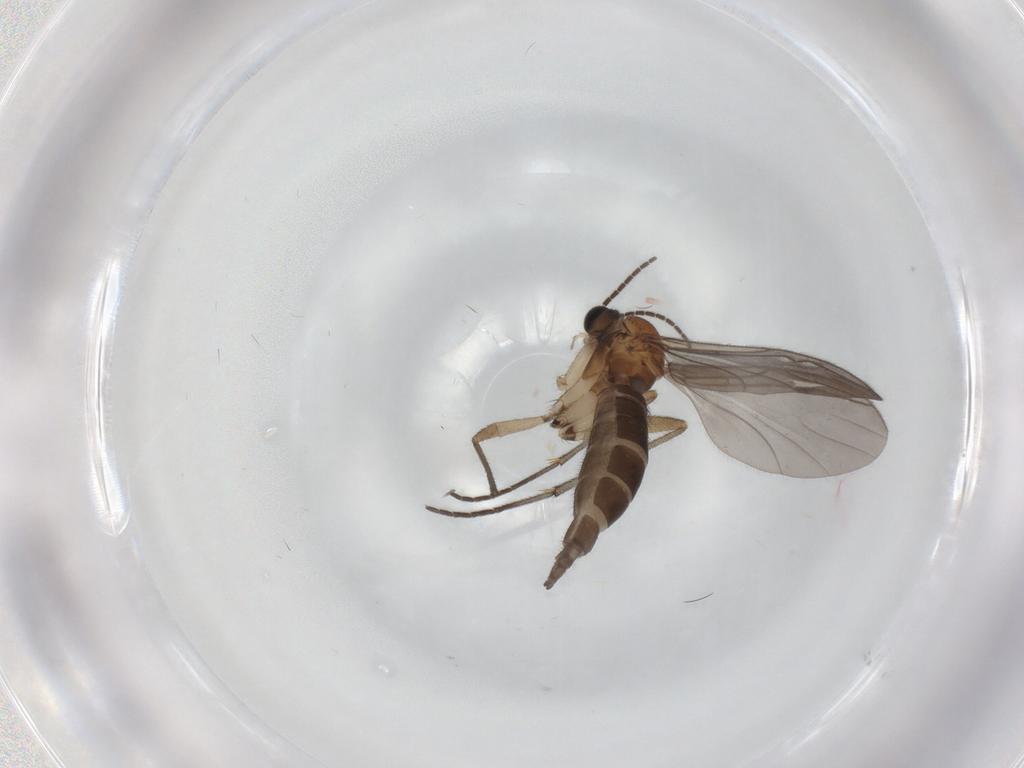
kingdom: Animalia
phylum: Arthropoda
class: Insecta
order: Diptera
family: Sciaridae
